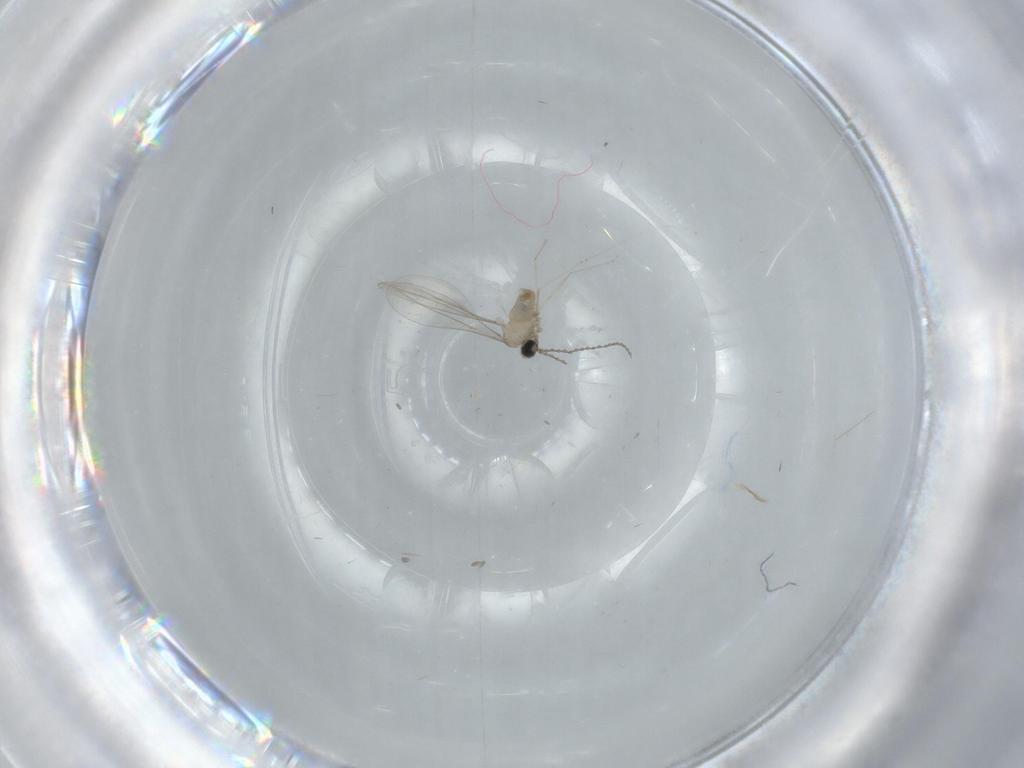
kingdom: Animalia
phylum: Arthropoda
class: Insecta
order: Diptera
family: Cecidomyiidae
